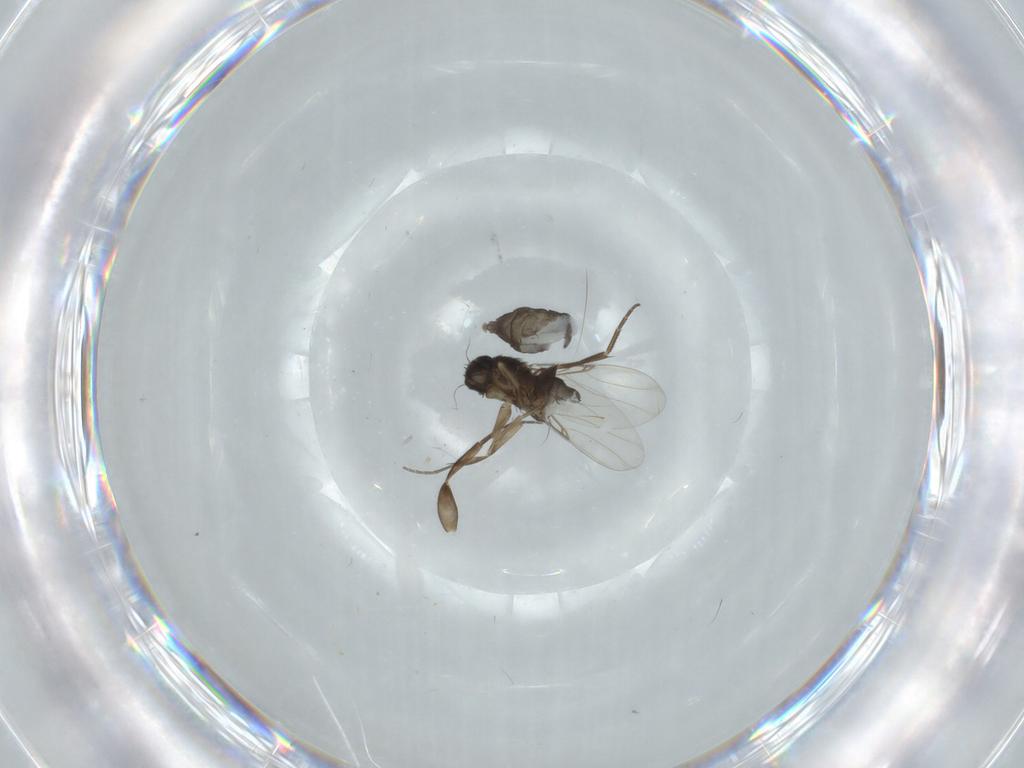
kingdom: Animalia
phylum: Arthropoda
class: Insecta
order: Diptera
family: Phoridae
